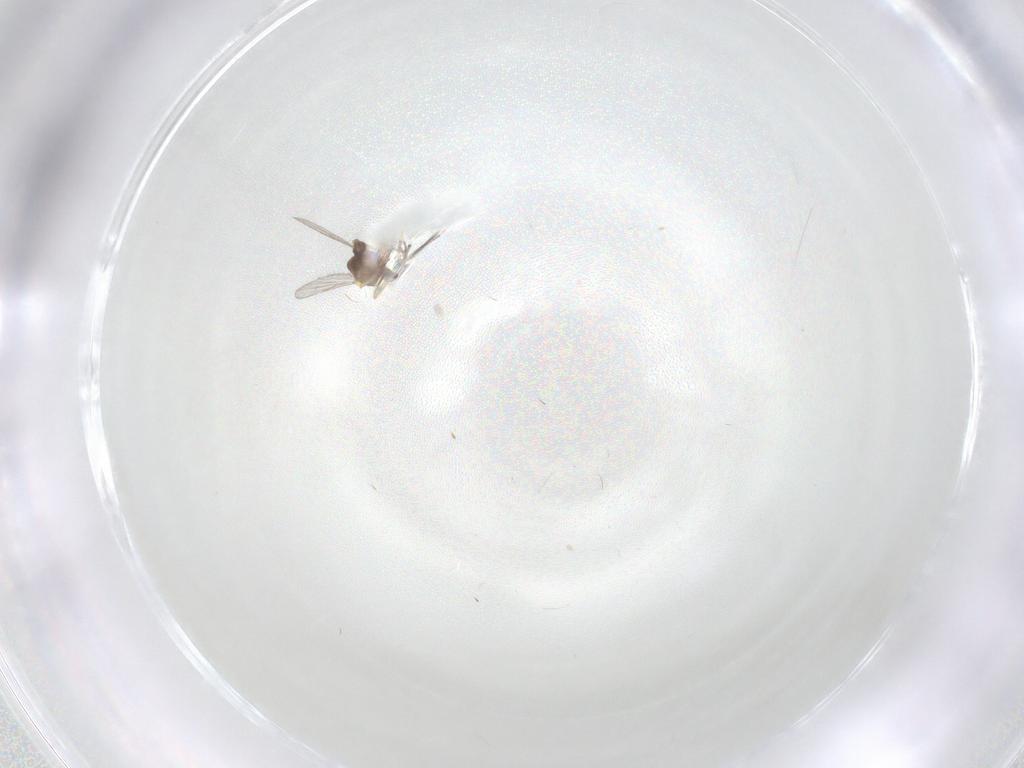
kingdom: Animalia
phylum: Arthropoda
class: Insecta
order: Diptera
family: Ceratopogonidae
